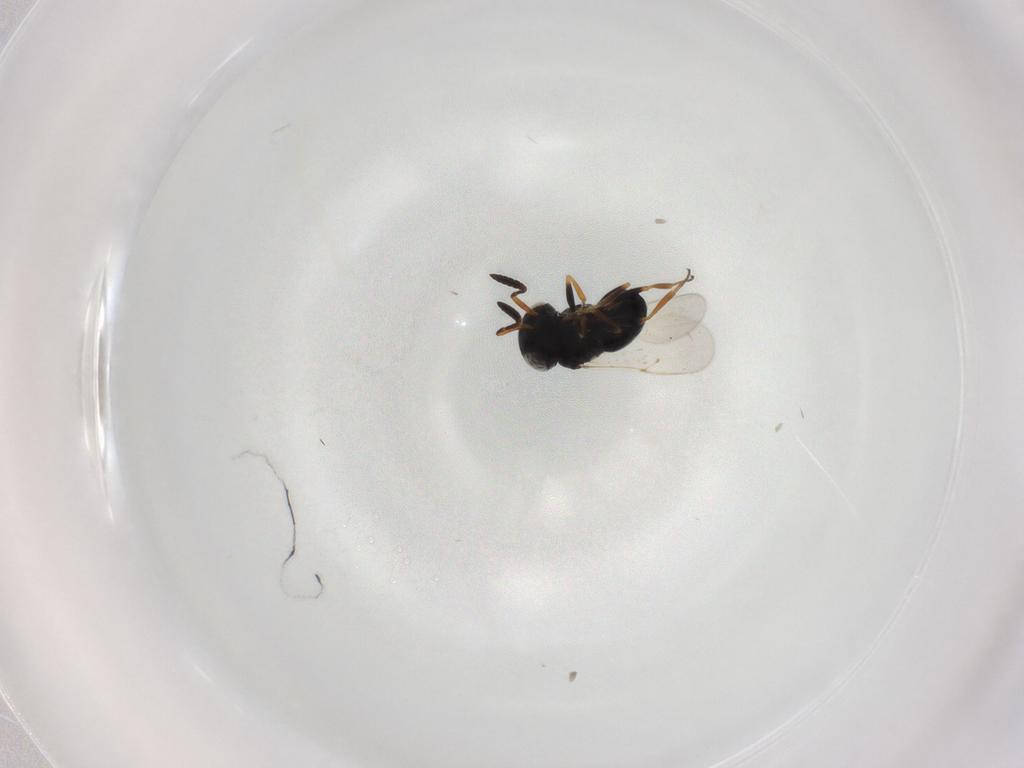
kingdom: Animalia
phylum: Arthropoda
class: Insecta
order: Coleoptera
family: Curculionidae
